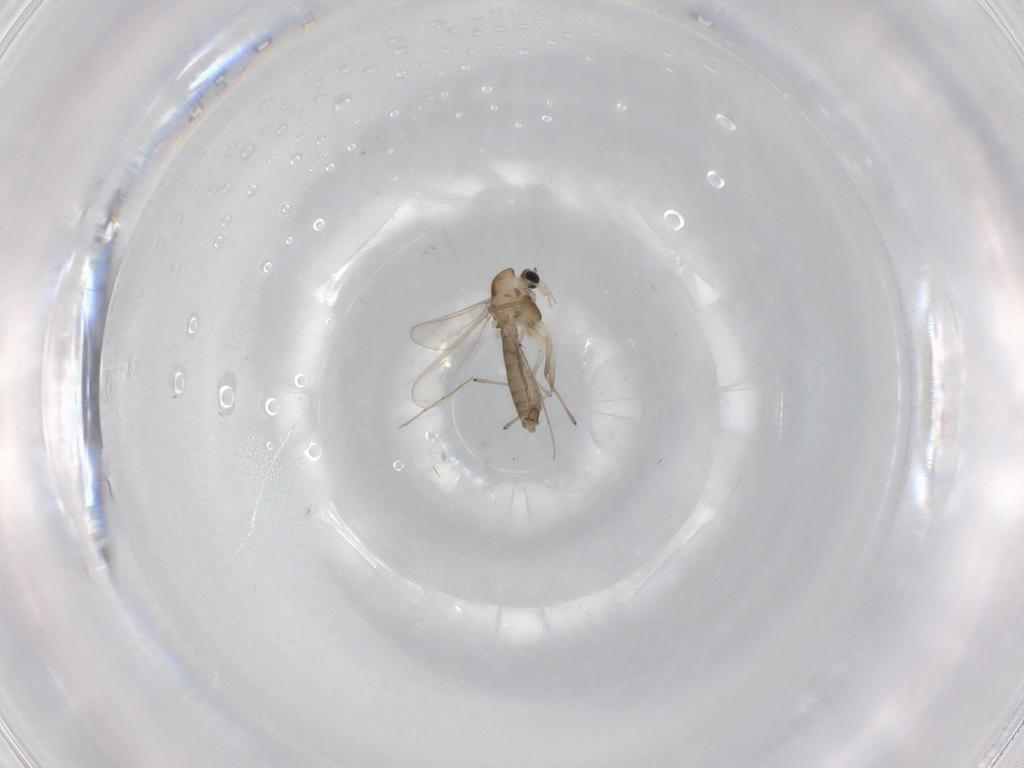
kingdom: Animalia
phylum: Arthropoda
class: Insecta
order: Diptera
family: Chironomidae
